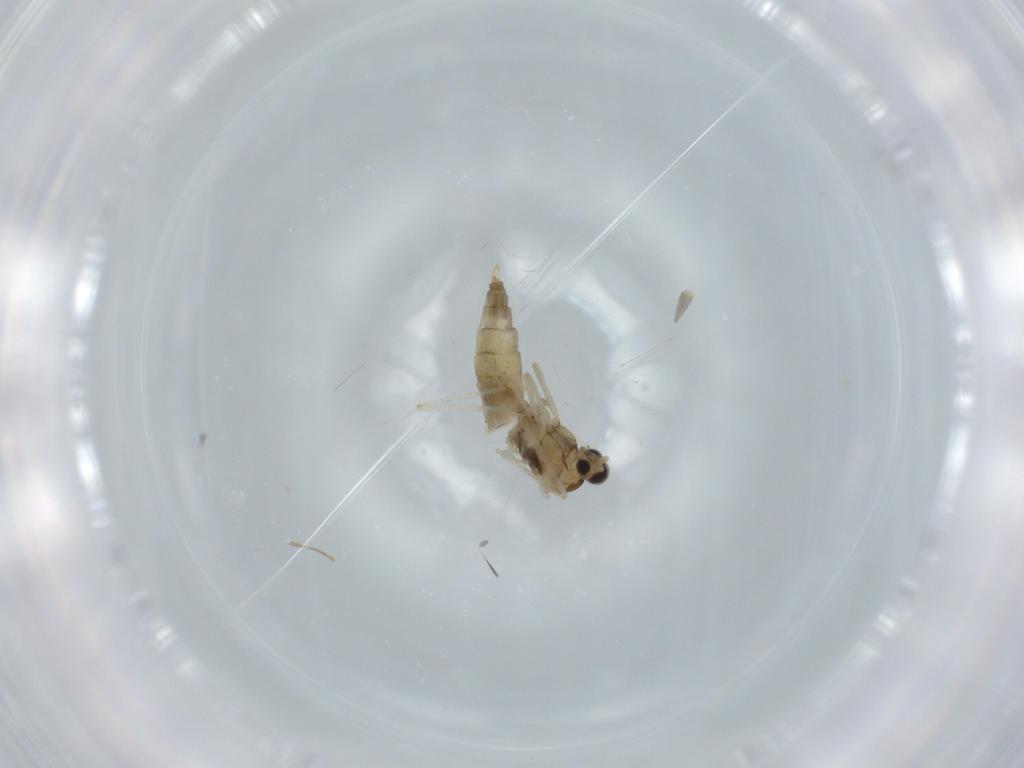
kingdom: Animalia
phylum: Arthropoda
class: Insecta
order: Diptera
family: Cecidomyiidae
